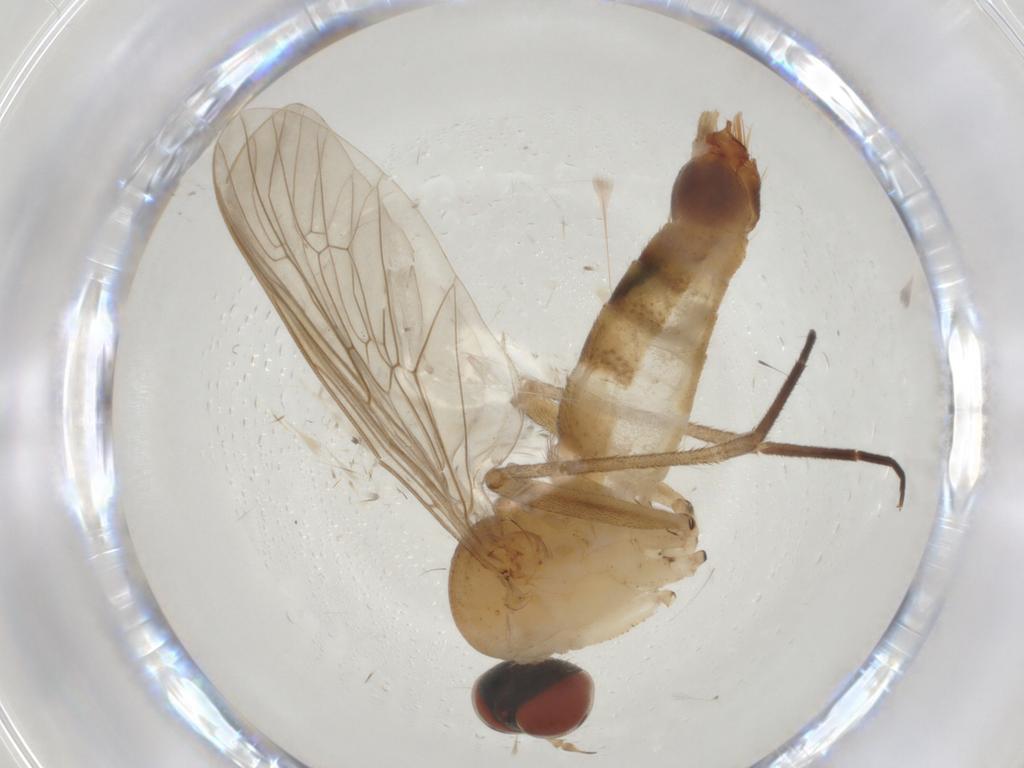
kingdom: Animalia
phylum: Arthropoda
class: Insecta
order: Diptera
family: Apsilocephalidae
